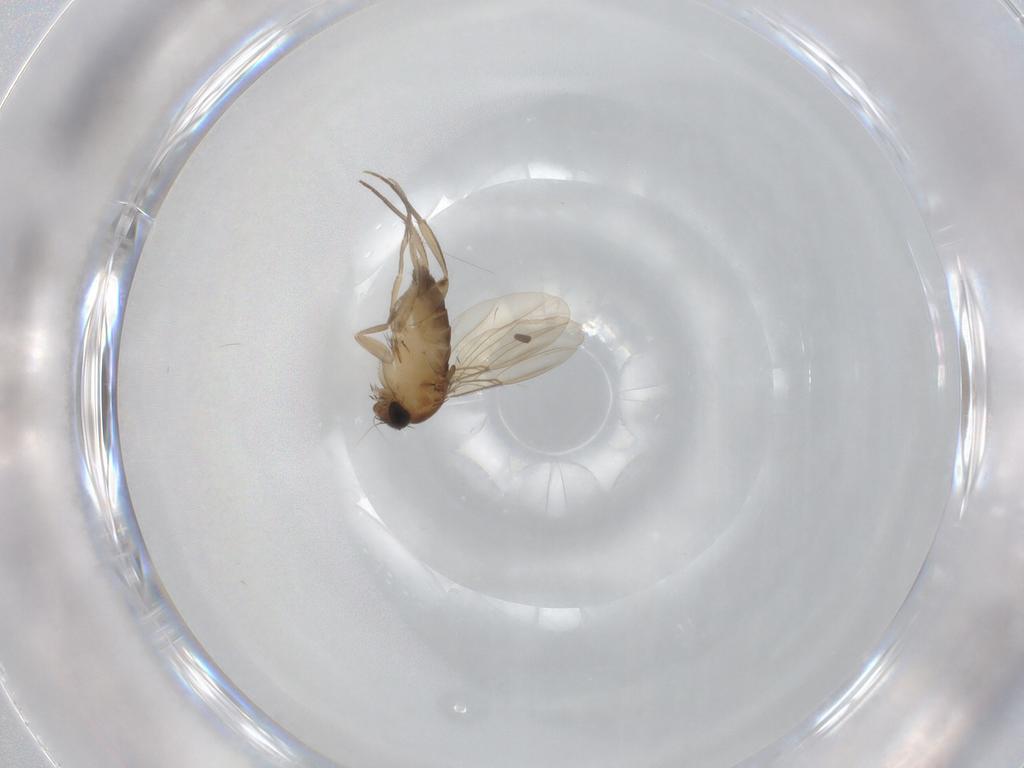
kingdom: Animalia
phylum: Arthropoda
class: Insecta
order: Diptera
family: Phoridae
